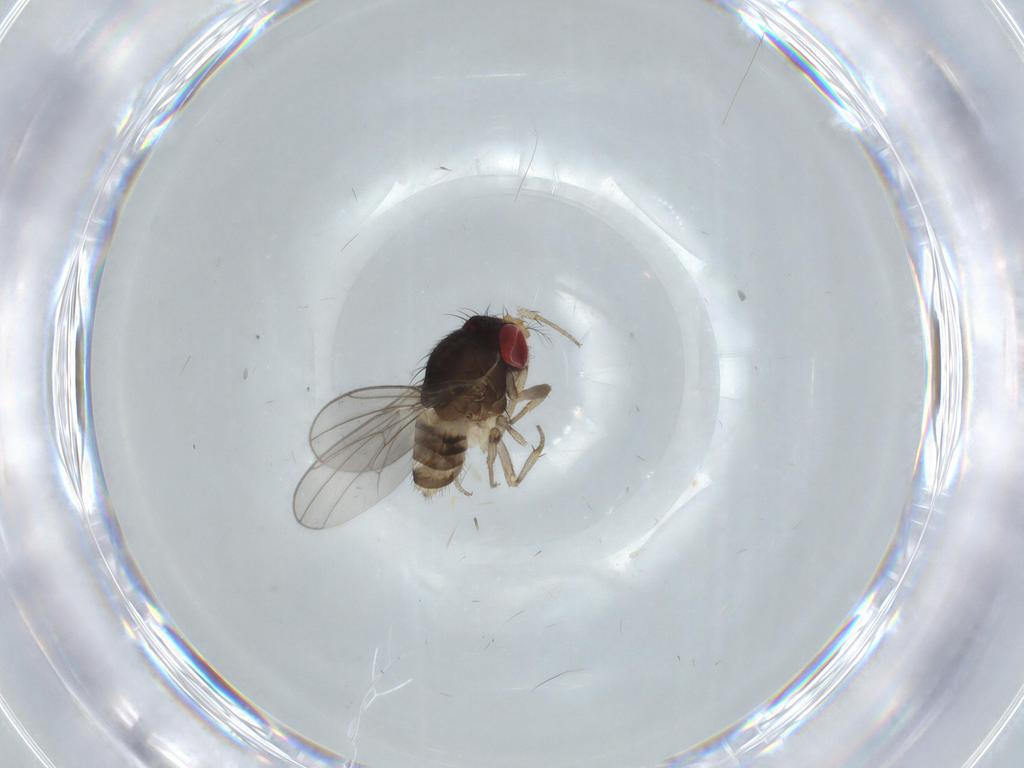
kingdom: Animalia
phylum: Arthropoda
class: Insecta
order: Diptera
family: Drosophilidae
